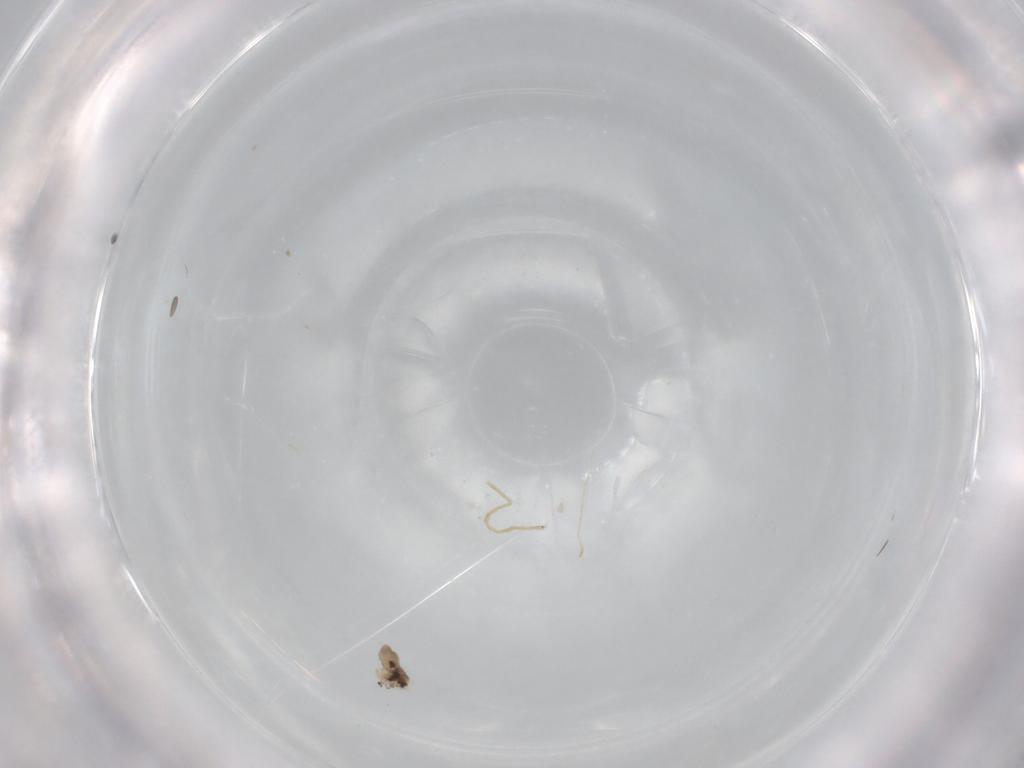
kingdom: Animalia
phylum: Arthropoda
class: Insecta
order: Diptera
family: Cecidomyiidae
